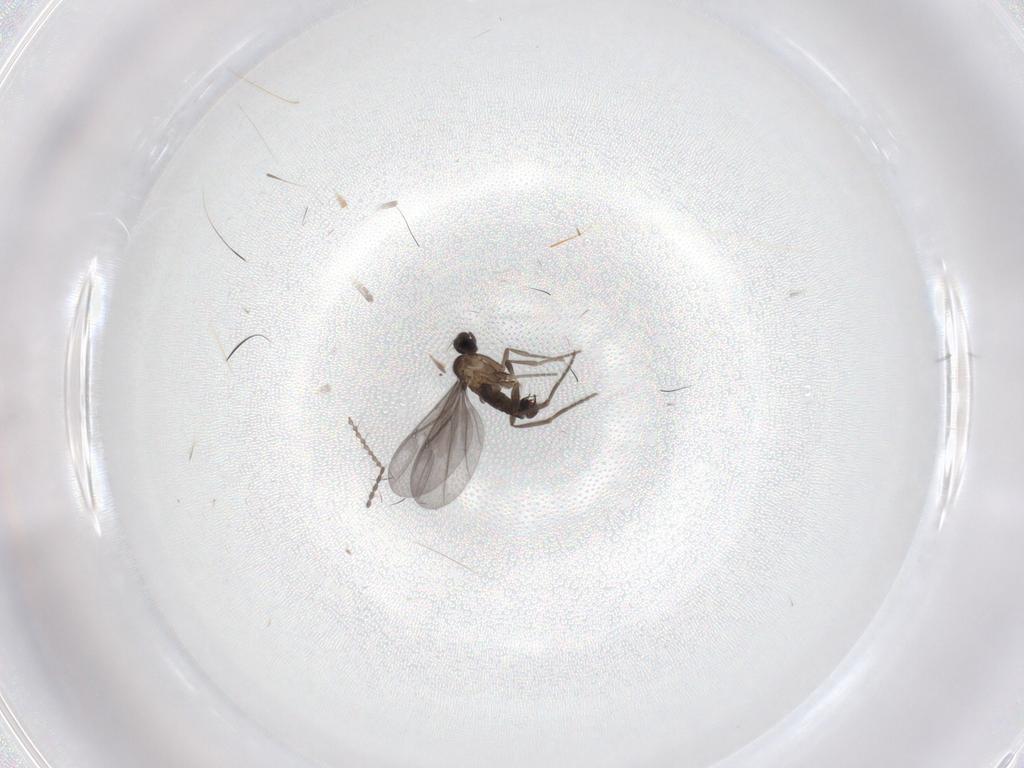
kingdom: Animalia
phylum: Arthropoda
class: Insecta
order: Diptera
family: Phoridae
